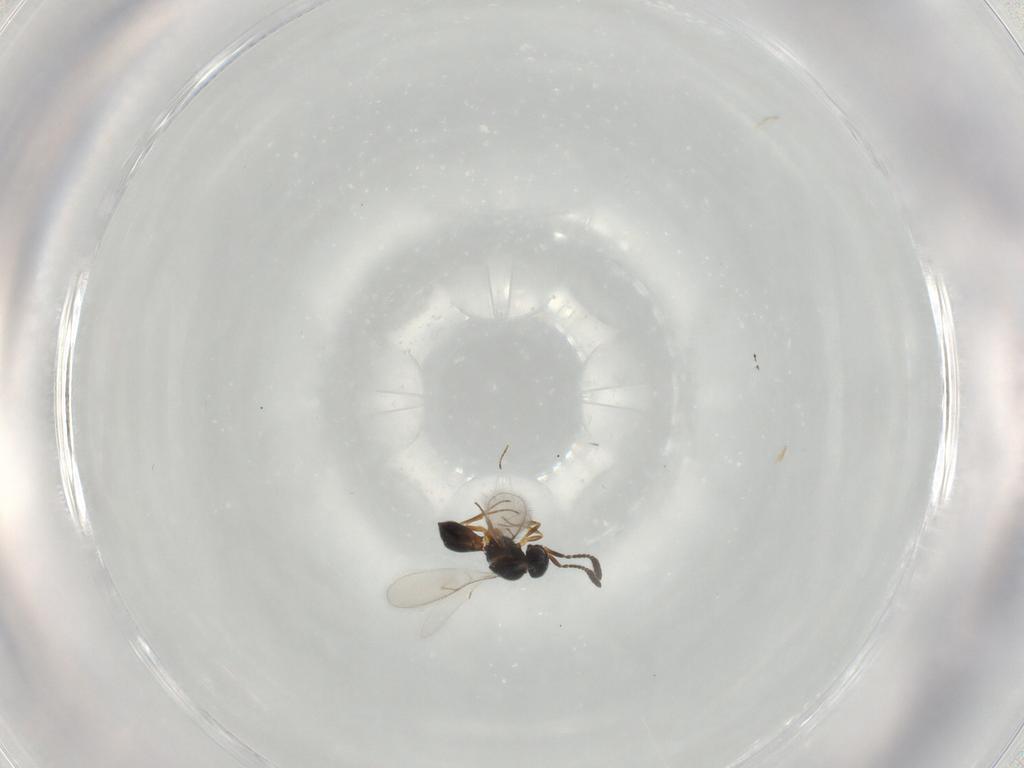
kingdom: Animalia
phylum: Arthropoda
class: Insecta
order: Hymenoptera
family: Scelionidae
